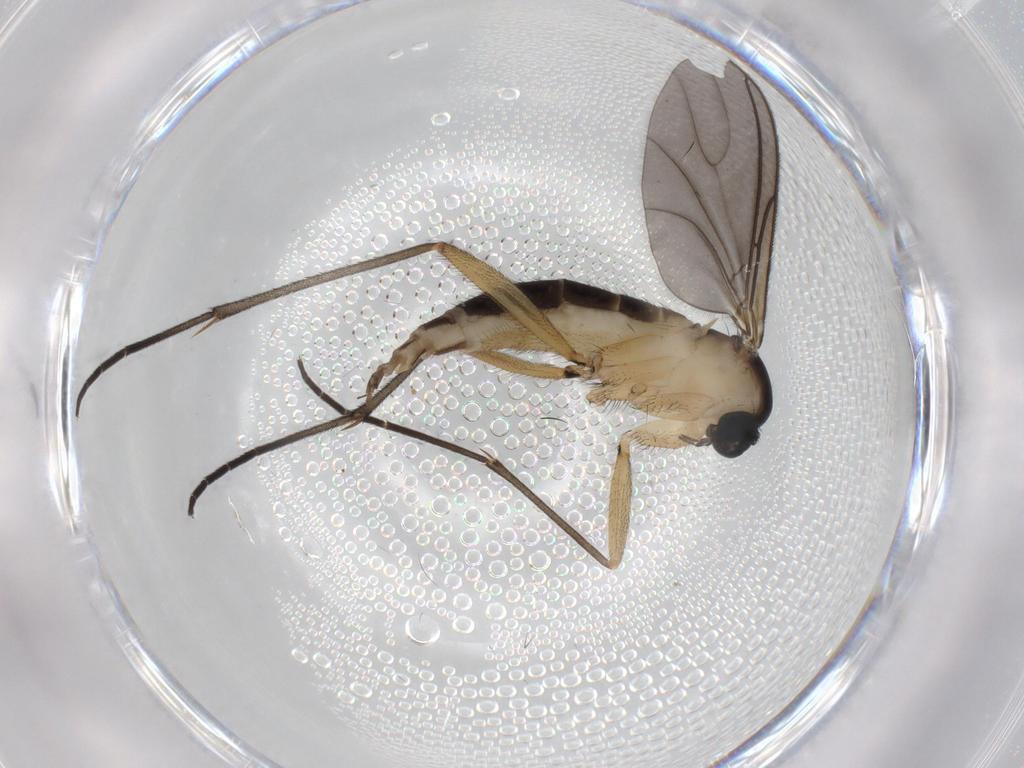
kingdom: Animalia
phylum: Arthropoda
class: Insecta
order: Diptera
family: Sciaridae
